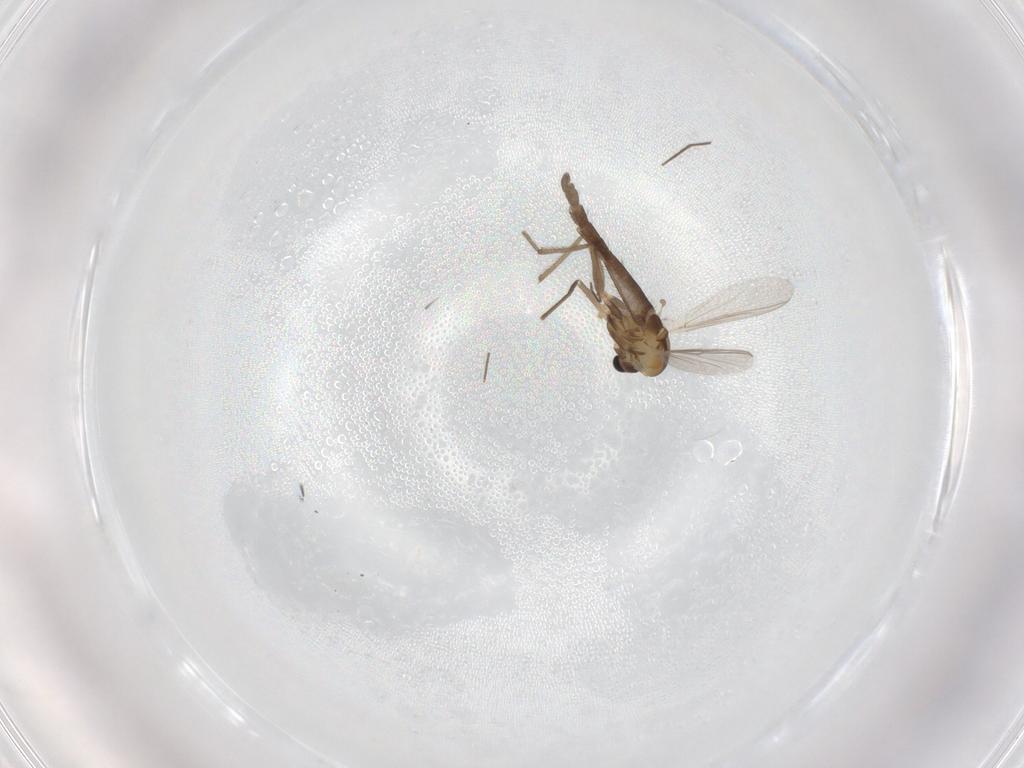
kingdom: Animalia
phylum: Arthropoda
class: Insecta
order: Diptera
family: Chironomidae
